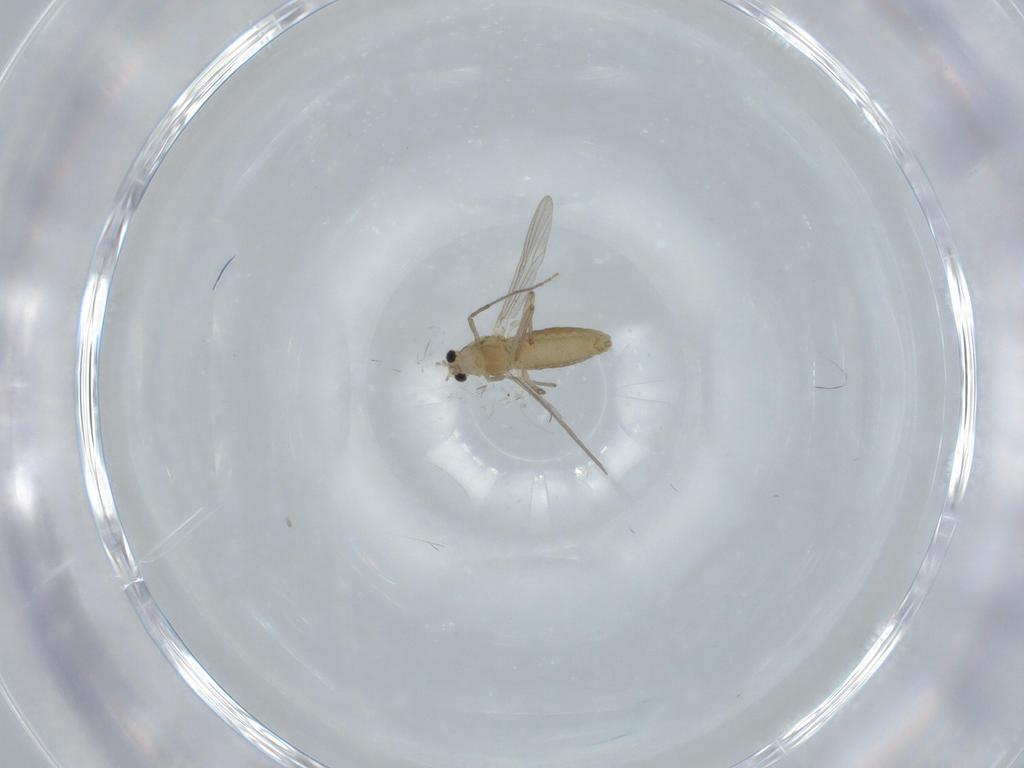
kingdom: Animalia
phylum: Arthropoda
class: Insecta
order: Diptera
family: Chironomidae
